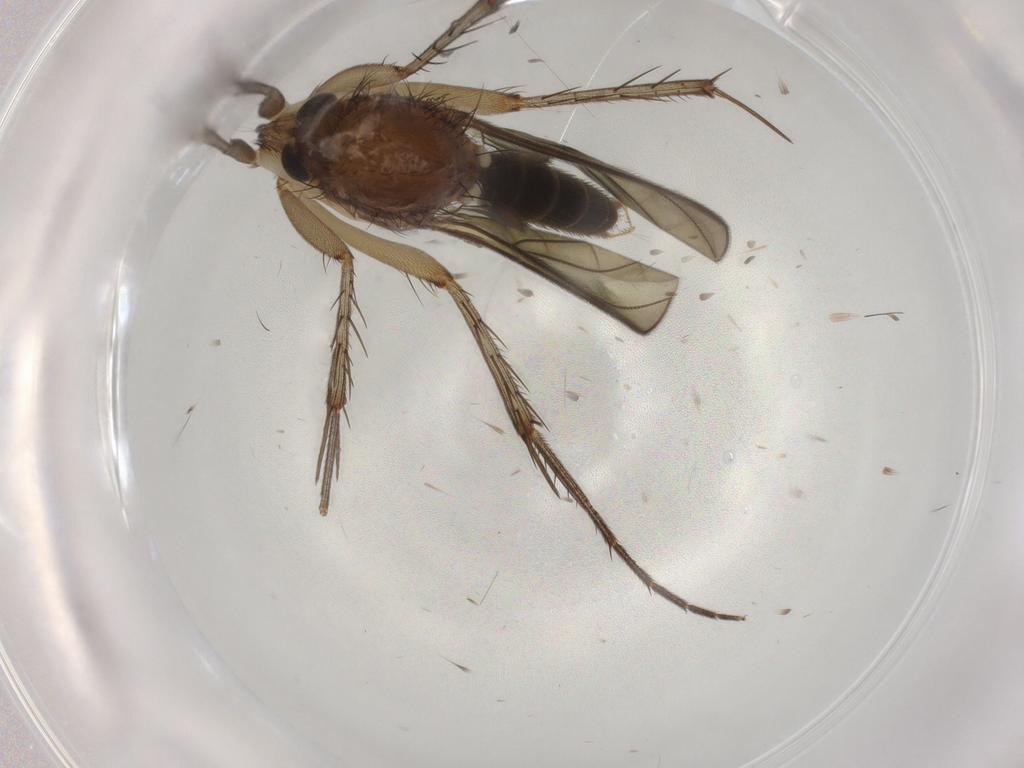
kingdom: Animalia
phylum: Arthropoda
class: Insecta
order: Diptera
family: Mycetophilidae
